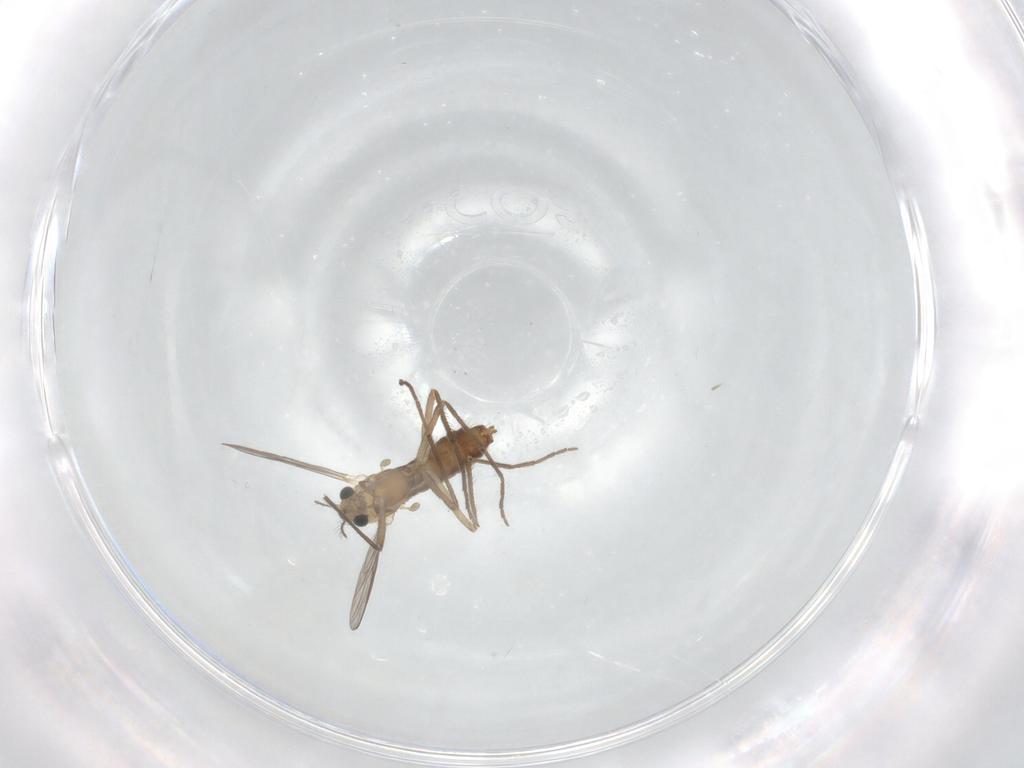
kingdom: Animalia
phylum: Arthropoda
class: Insecta
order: Diptera
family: Chironomidae
